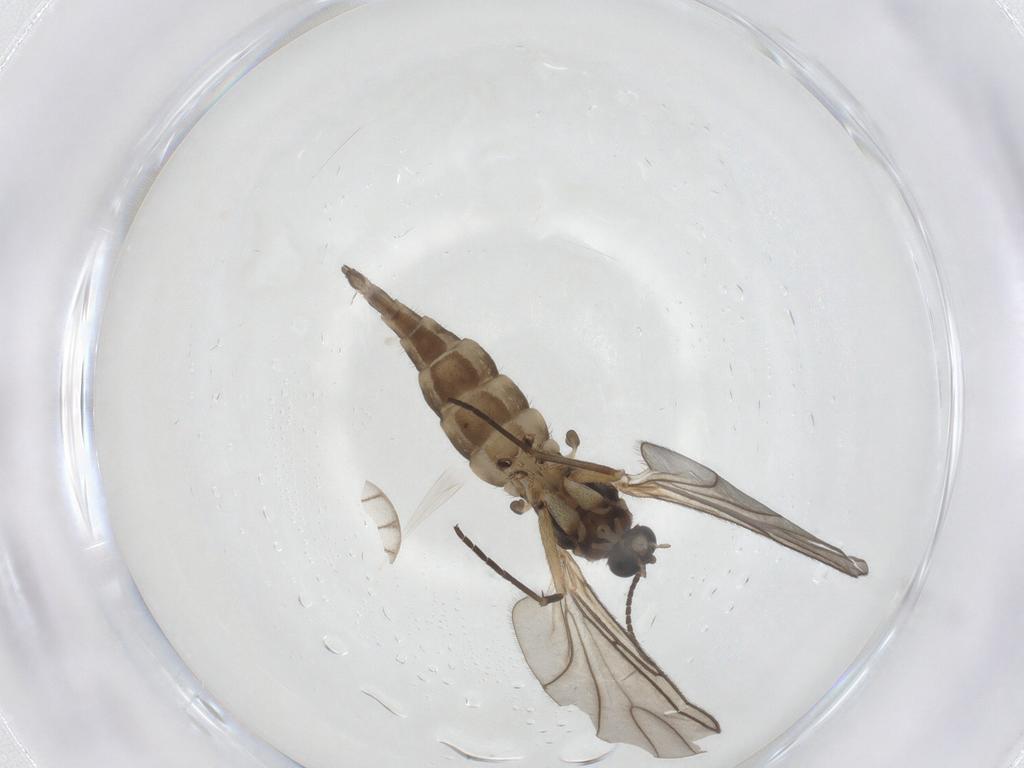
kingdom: Animalia
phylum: Arthropoda
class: Insecta
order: Diptera
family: Sciaridae
